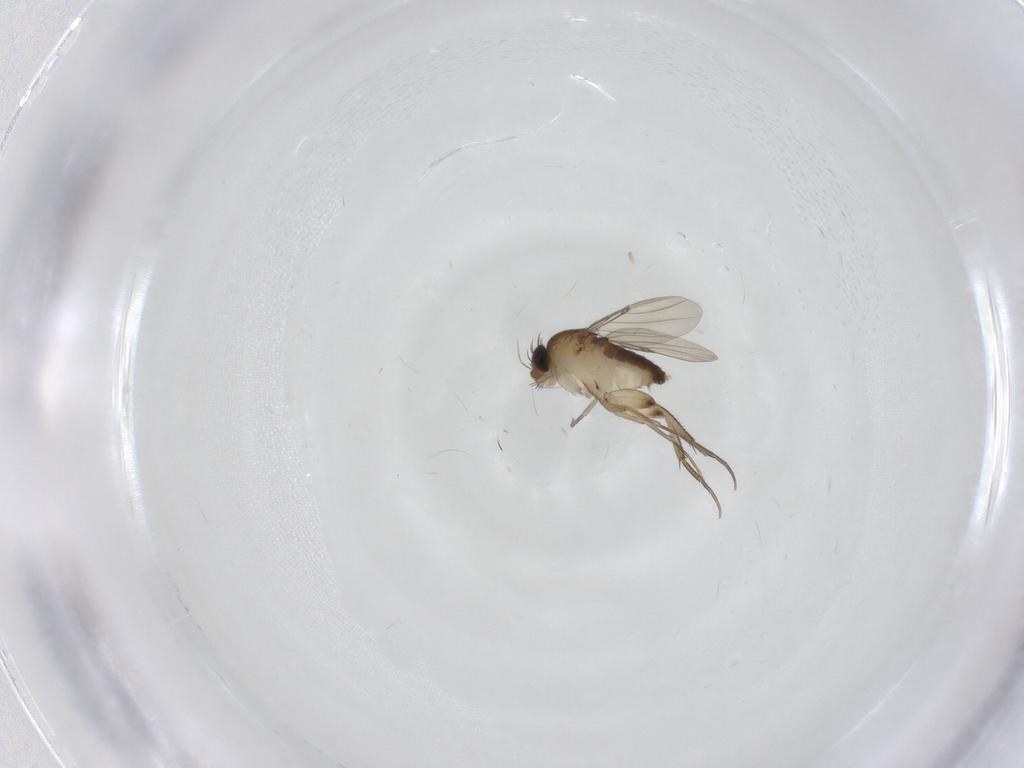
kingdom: Animalia
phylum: Arthropoda
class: Insecta
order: Diptera
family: Phoridae
